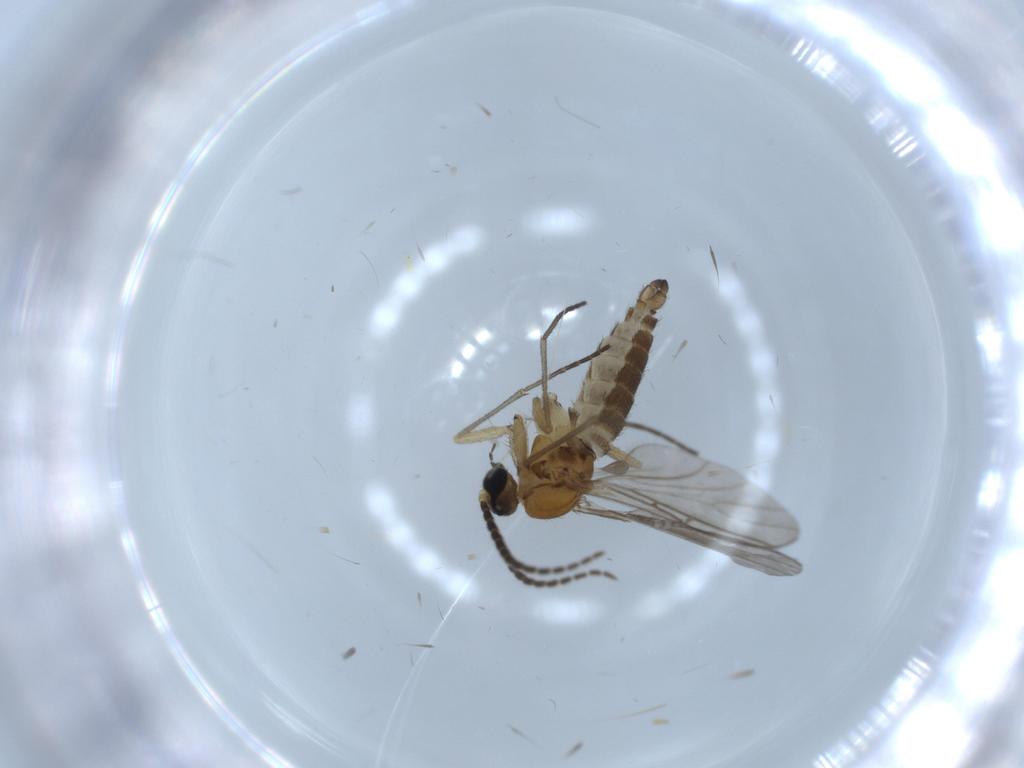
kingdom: Animalia
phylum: Arthropoda
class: Insecta
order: Diptera
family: Sciaridae
